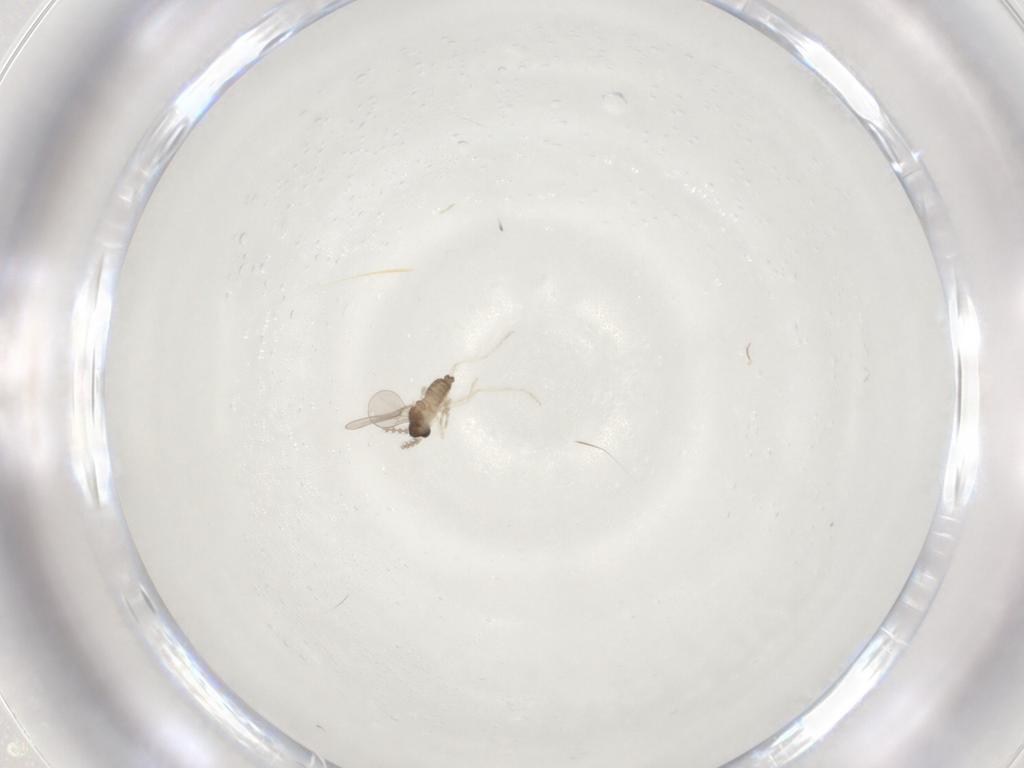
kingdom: Animalia
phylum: Arthropoda
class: Insecta
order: Diptera
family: Cecidomyiidae
